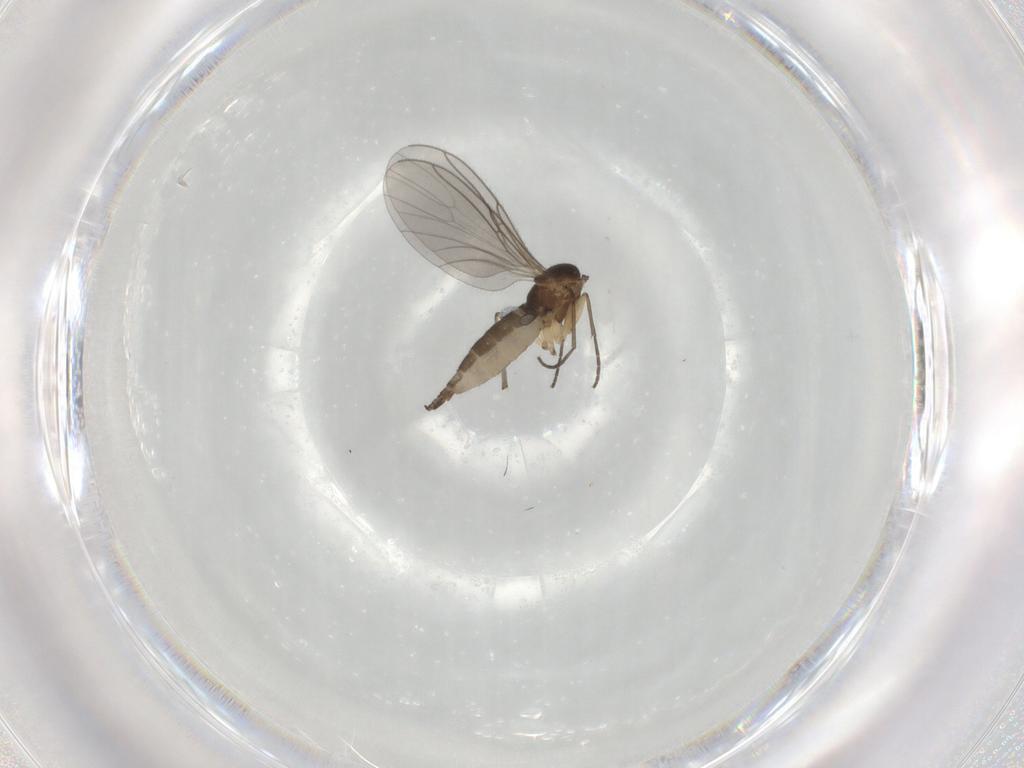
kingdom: Animalia
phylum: Arthropoda
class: Insecta
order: Diptera
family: Sciaridae
